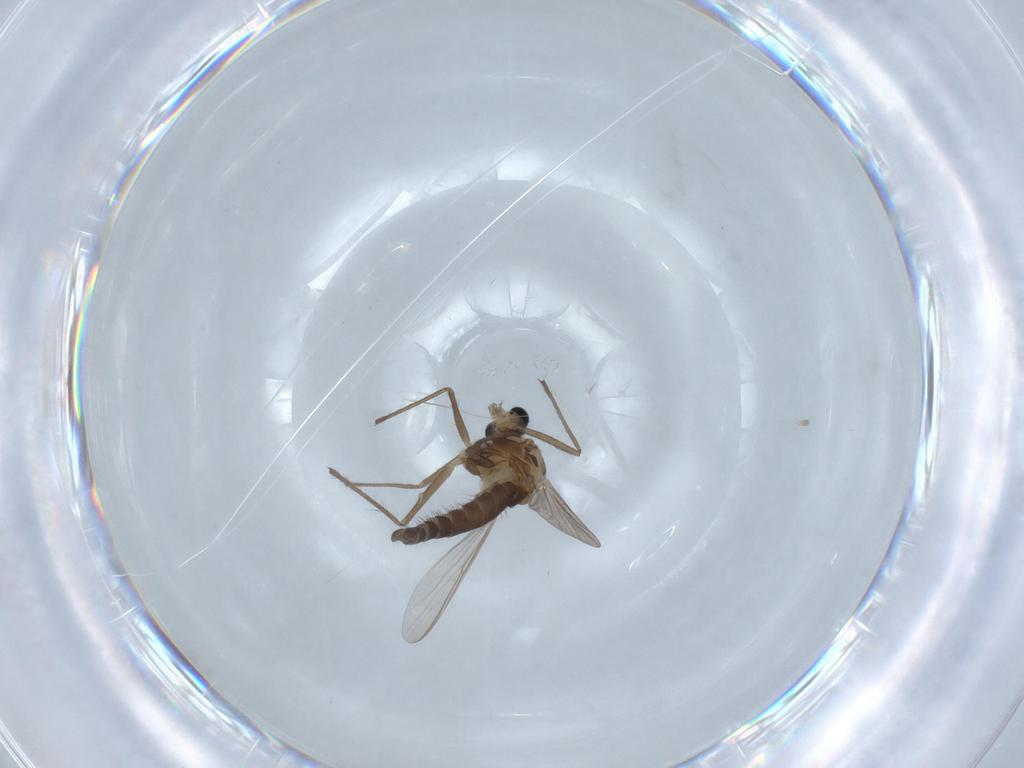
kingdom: Animalia
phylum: Arthropoda
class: Insecta
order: Diptera
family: Chironomidae
